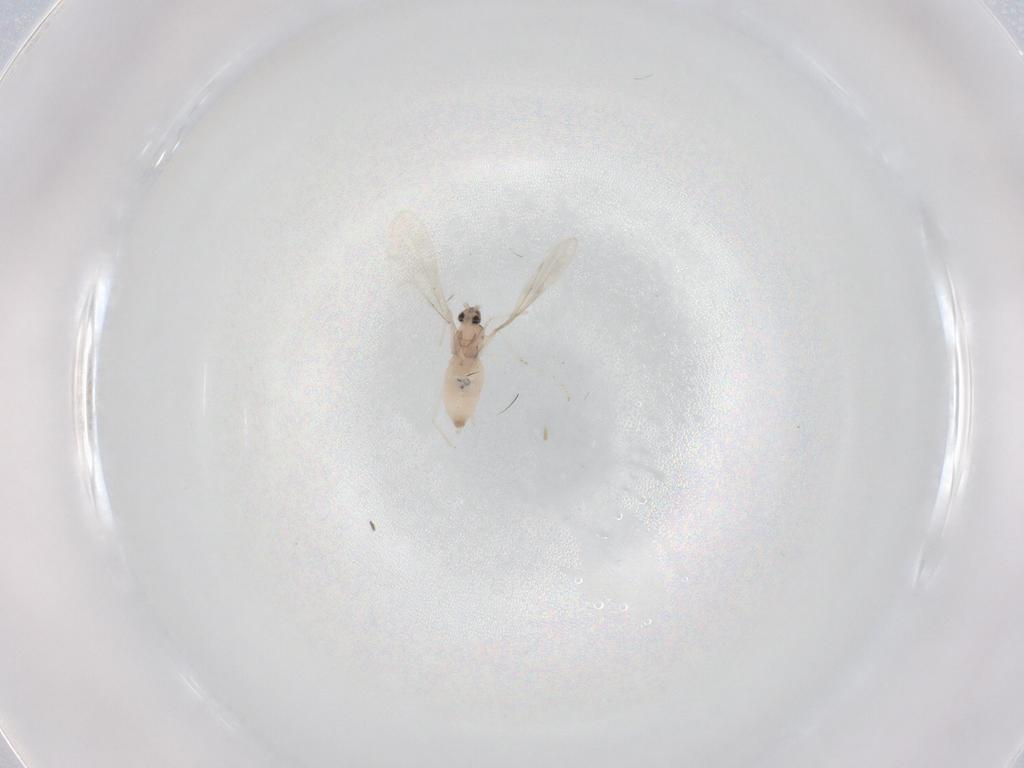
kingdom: Animalia
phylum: Arthropoda
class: Insecta
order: Diptera
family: Cecidomyiidae
